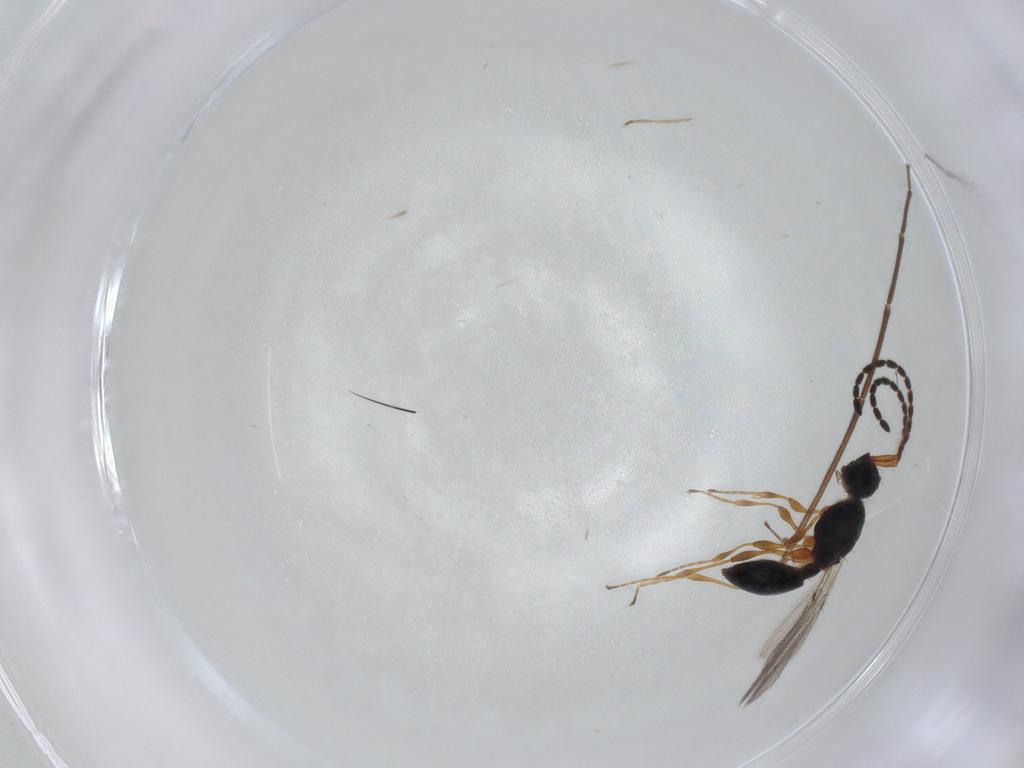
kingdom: Animalia
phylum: Arthropoda
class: Insecta
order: Hymenoptera
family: Diapriidae
